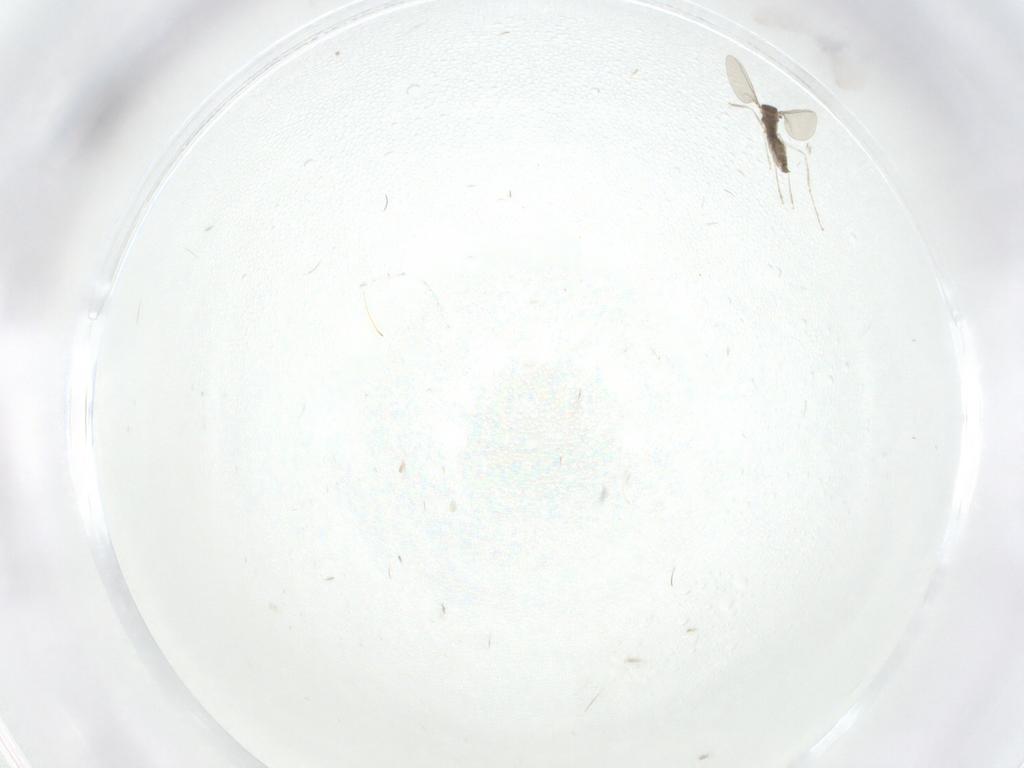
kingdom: Animalia
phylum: Arthropoda
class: Insecta
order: Diptera
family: Cecidomyiidae
